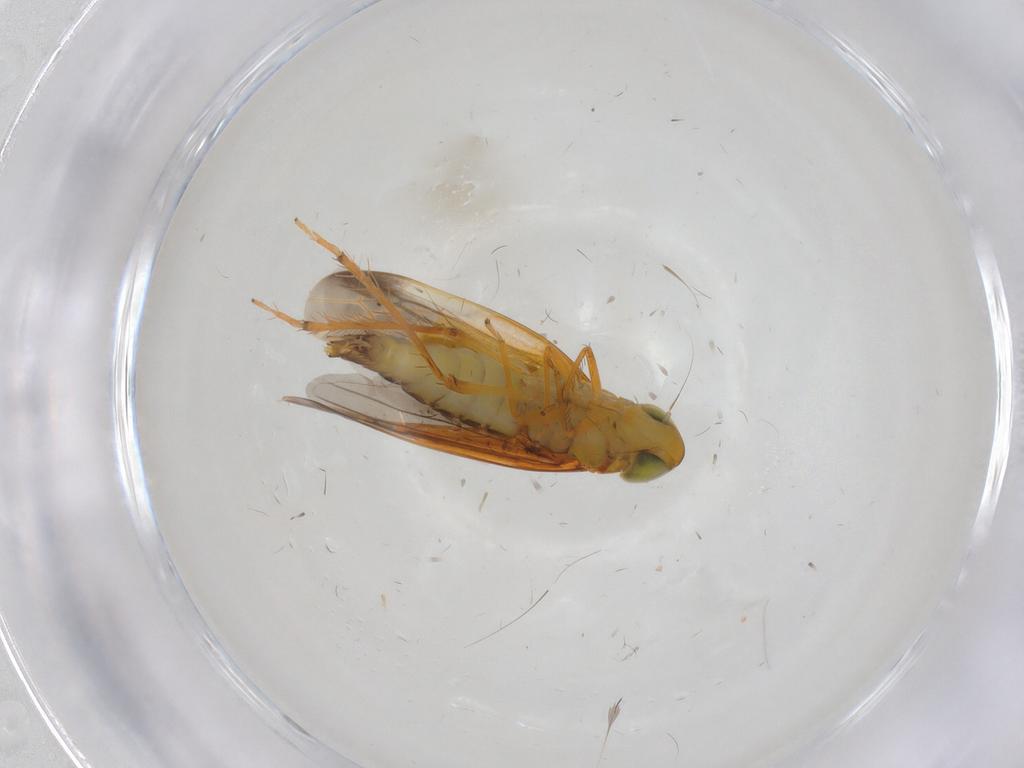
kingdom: Animalia
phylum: Arthropoda
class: Insecta
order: Hemiptera
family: Cicadellidae
